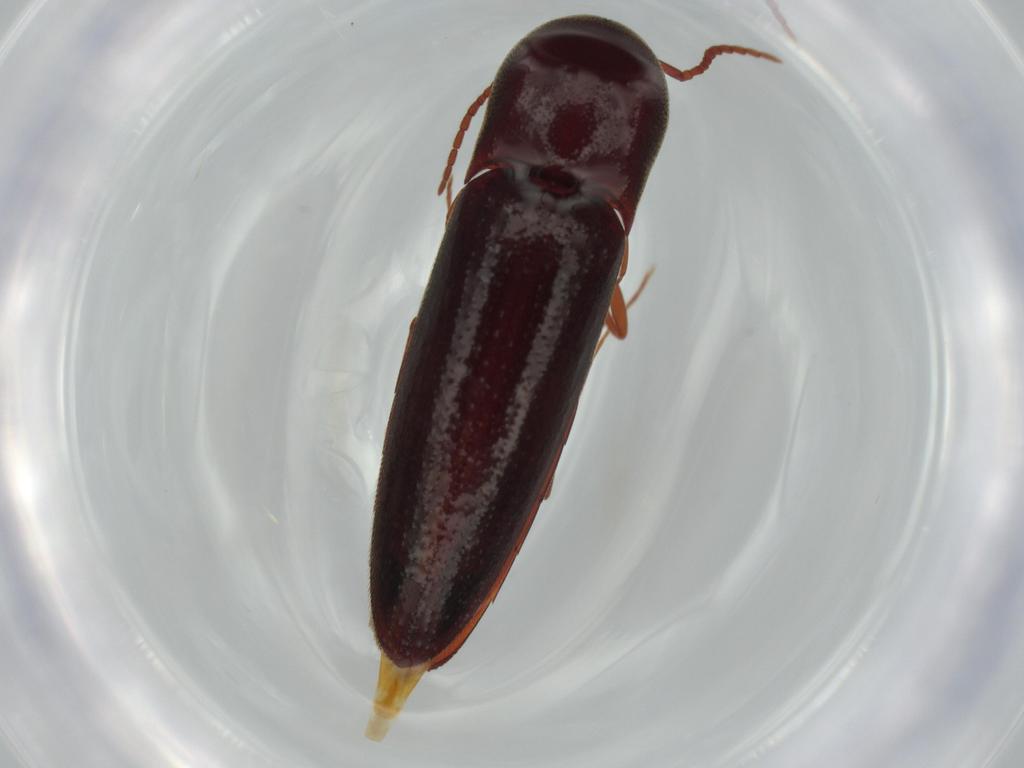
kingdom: Animalia
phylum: Arthropoda
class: Insecta
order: Coleoptera
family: Eucnemidae
